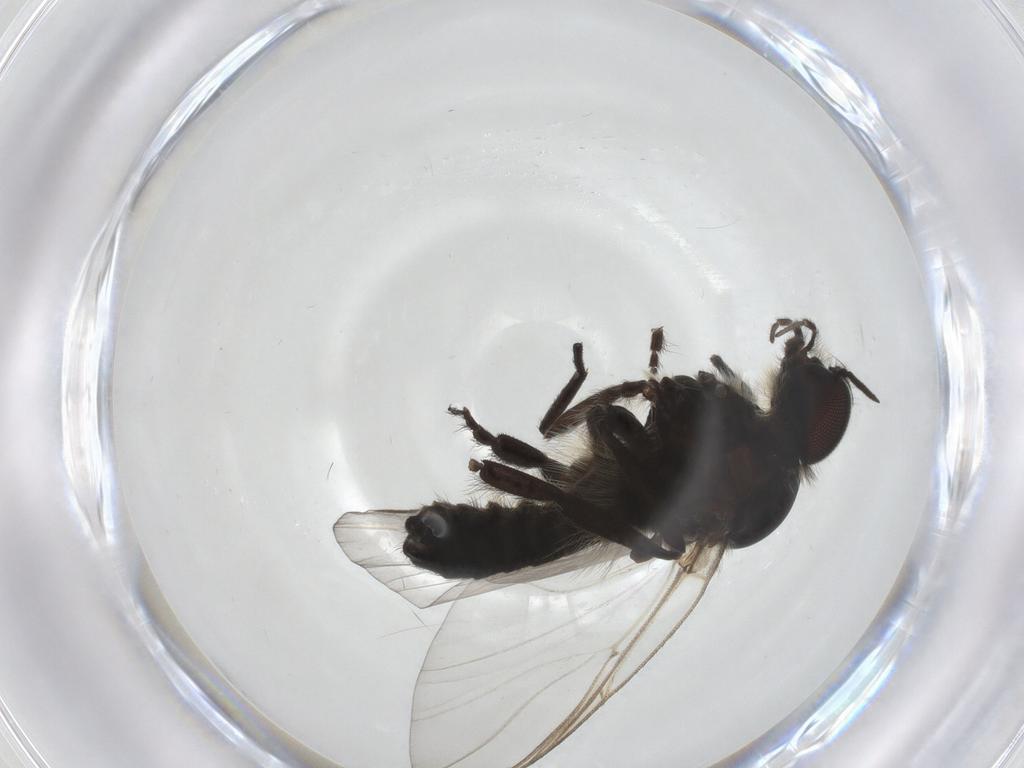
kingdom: Animalia
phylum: Arthropoda
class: Insecta
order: Diptera
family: Simuliidae
